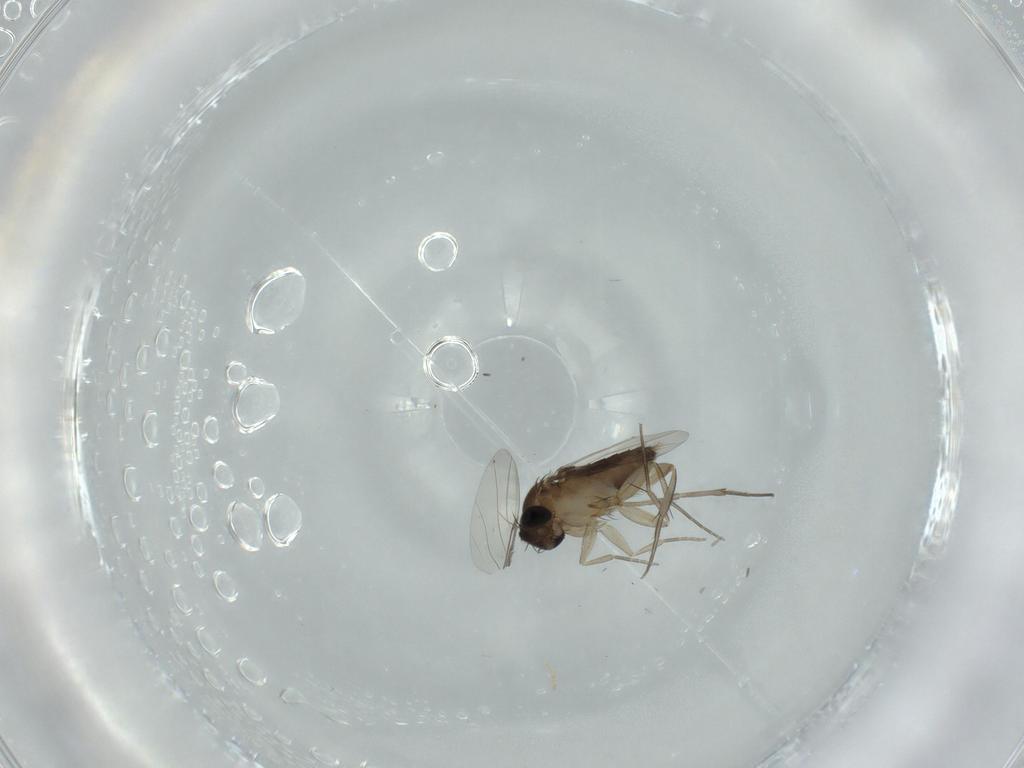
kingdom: Animalia
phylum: Arthropoda
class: Insecta
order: Diptera
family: Phoridae
